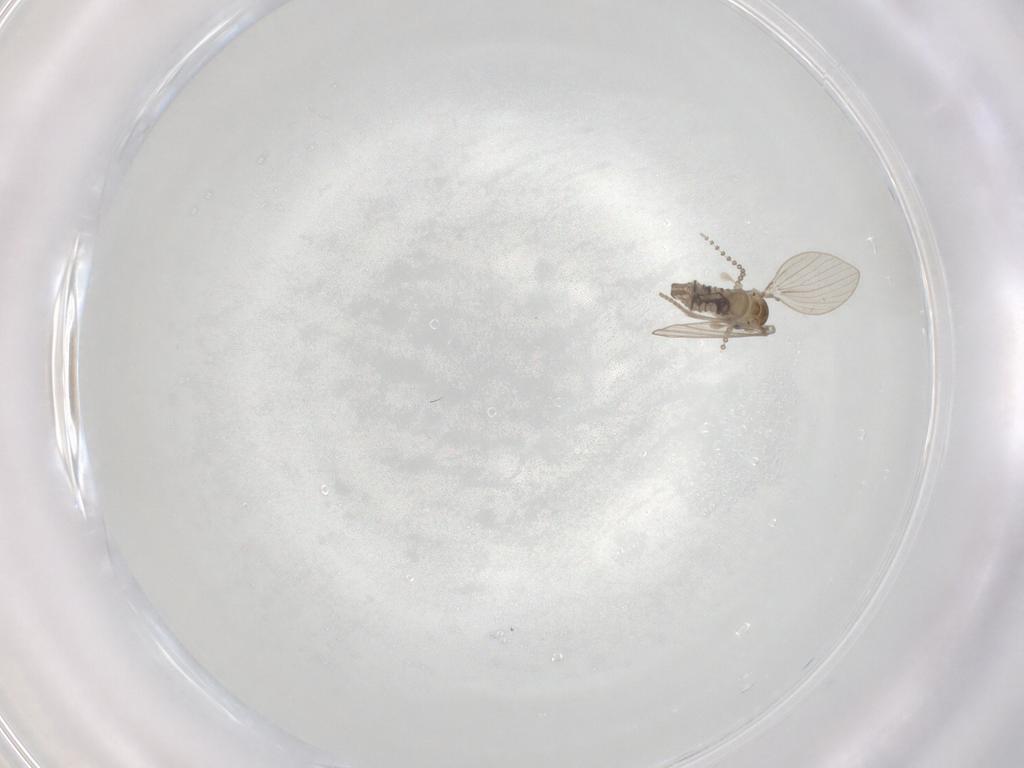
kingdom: Animalia
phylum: Arthropoda
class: Insecta
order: Diptera
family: Psychodidae
